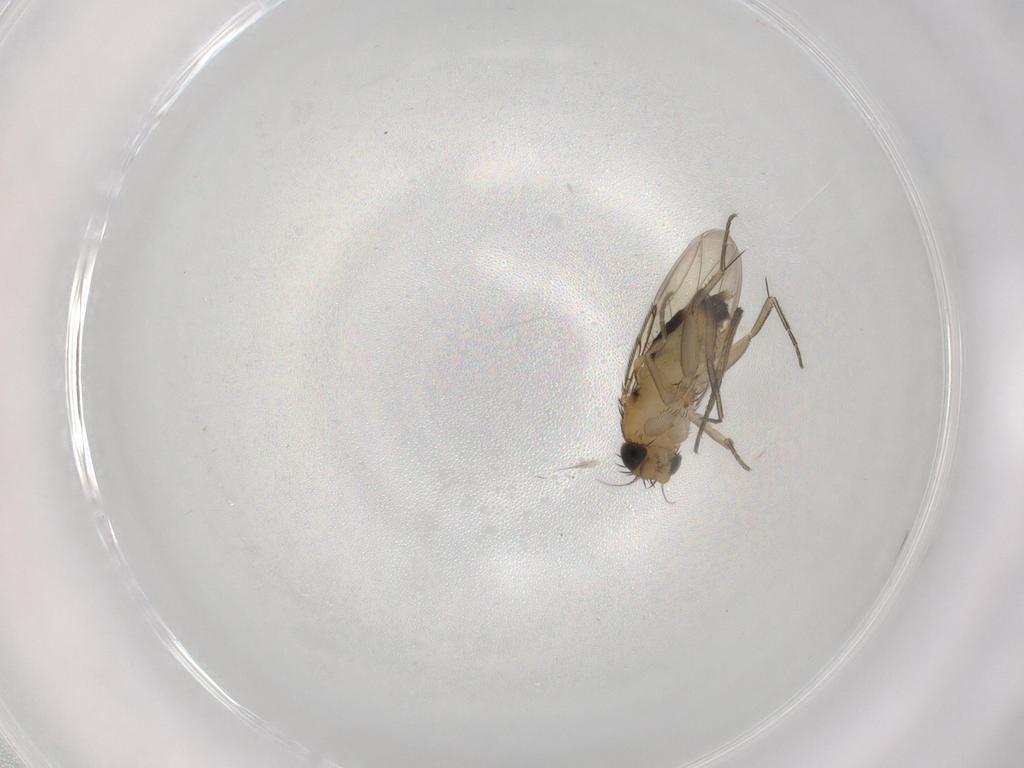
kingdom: Animalia
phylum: Arthropoda
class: Insecta
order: Diptera
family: Phoridae
